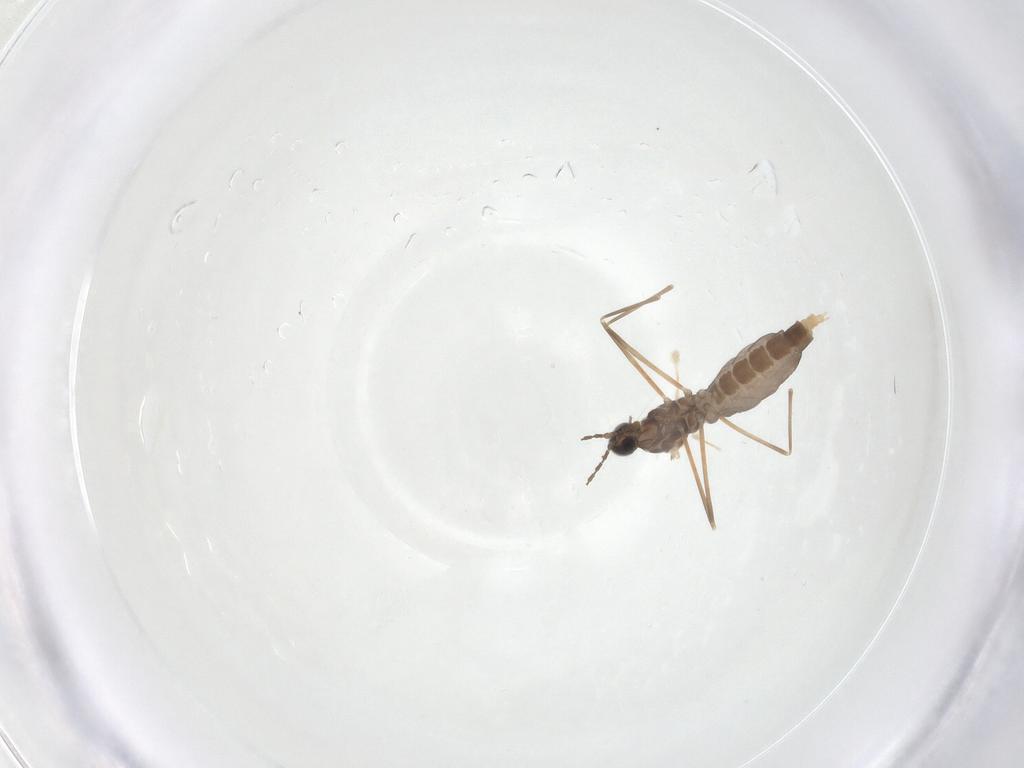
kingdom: Animalia
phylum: Arthropoda
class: Insecta
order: Diptera
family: Cecidomyiidae
